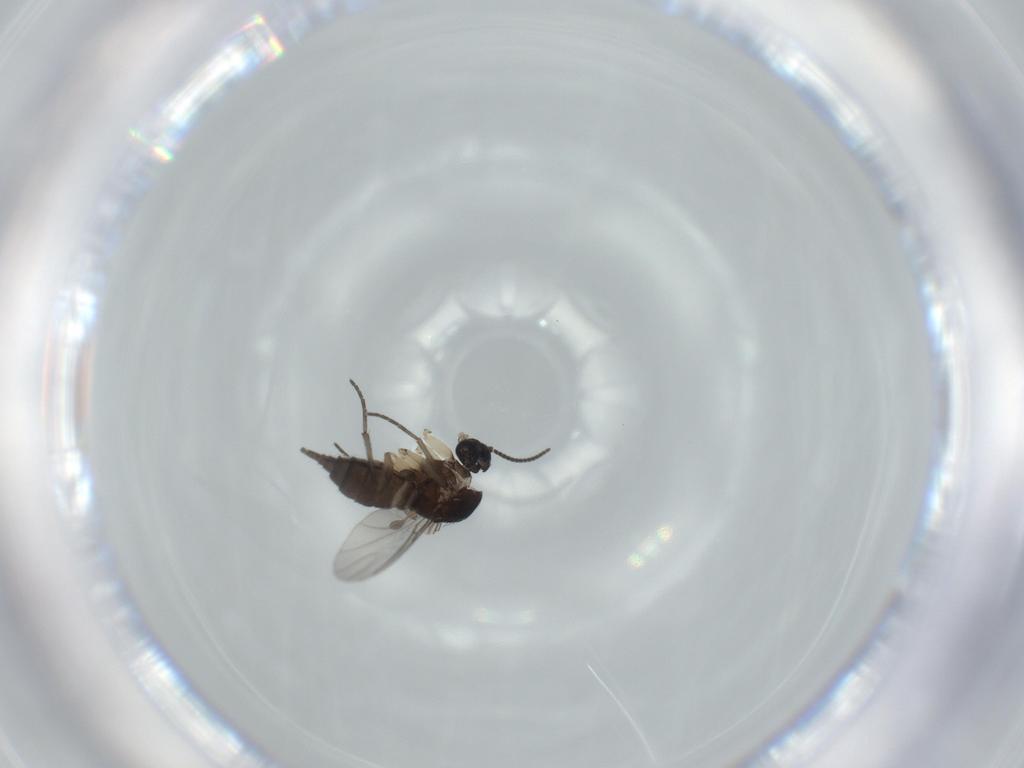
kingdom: Animalia
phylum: Arthropoda
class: Insecta
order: Diptera
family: Sciaridae
